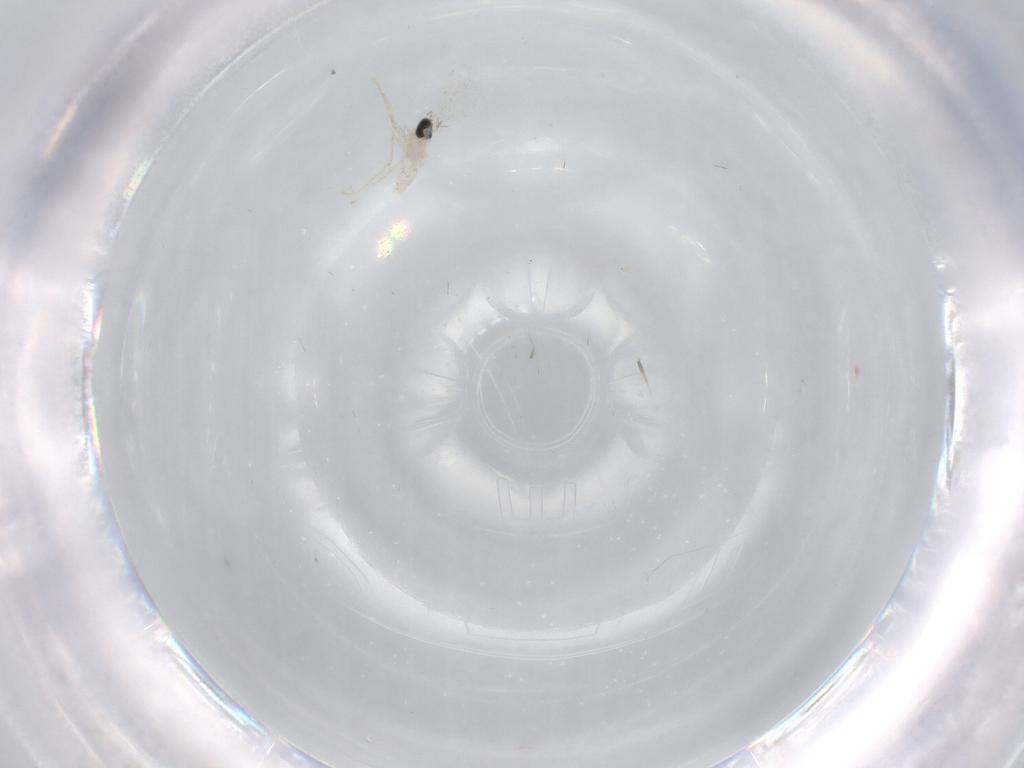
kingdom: Animalia
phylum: Arthropoda
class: Insecta
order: Diptera
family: Cecidomyiidae
